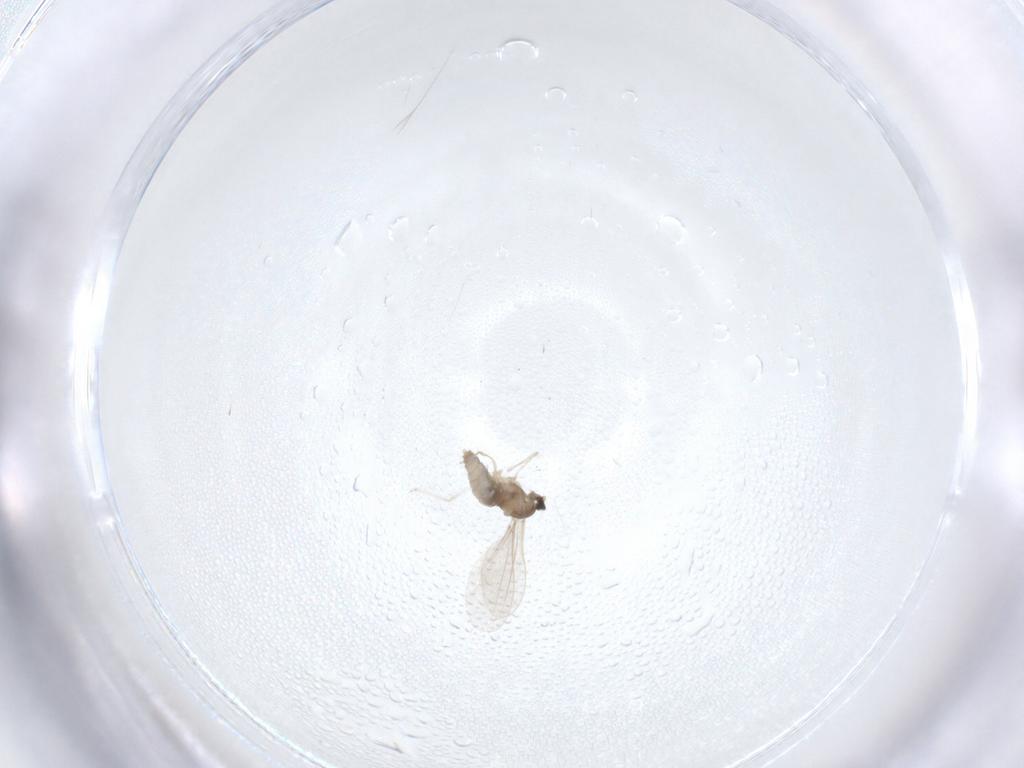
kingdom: Animalia
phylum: Arthropoda
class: Insecta
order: Diptera
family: Cecidomyiidae
